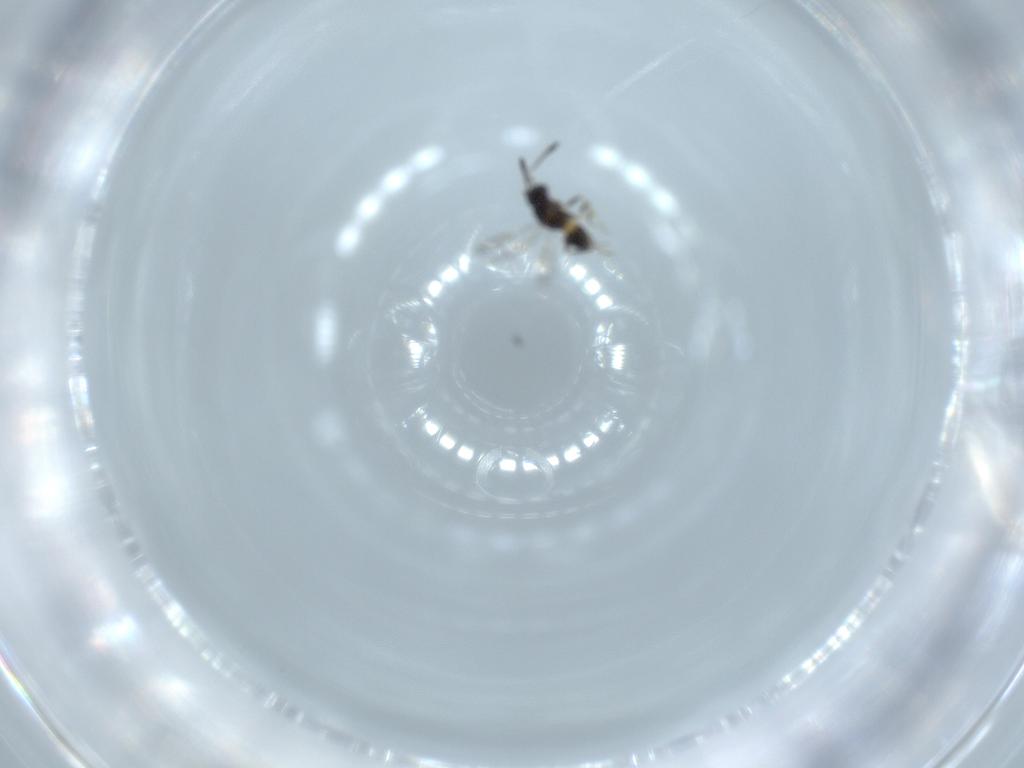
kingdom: Animalia
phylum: Arthropoda
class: Insecta
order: Hymenoptera
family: Mymaridae
